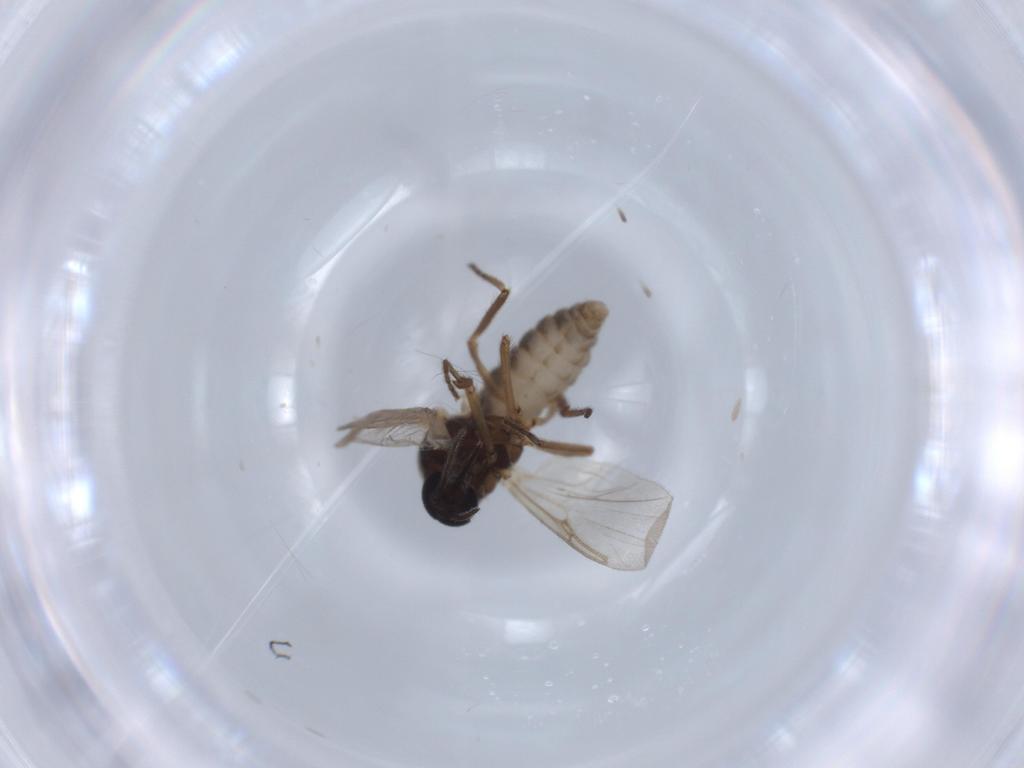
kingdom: Animalia
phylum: Arthropoda
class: Insecta
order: Diptera
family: Ceratopogonidae
